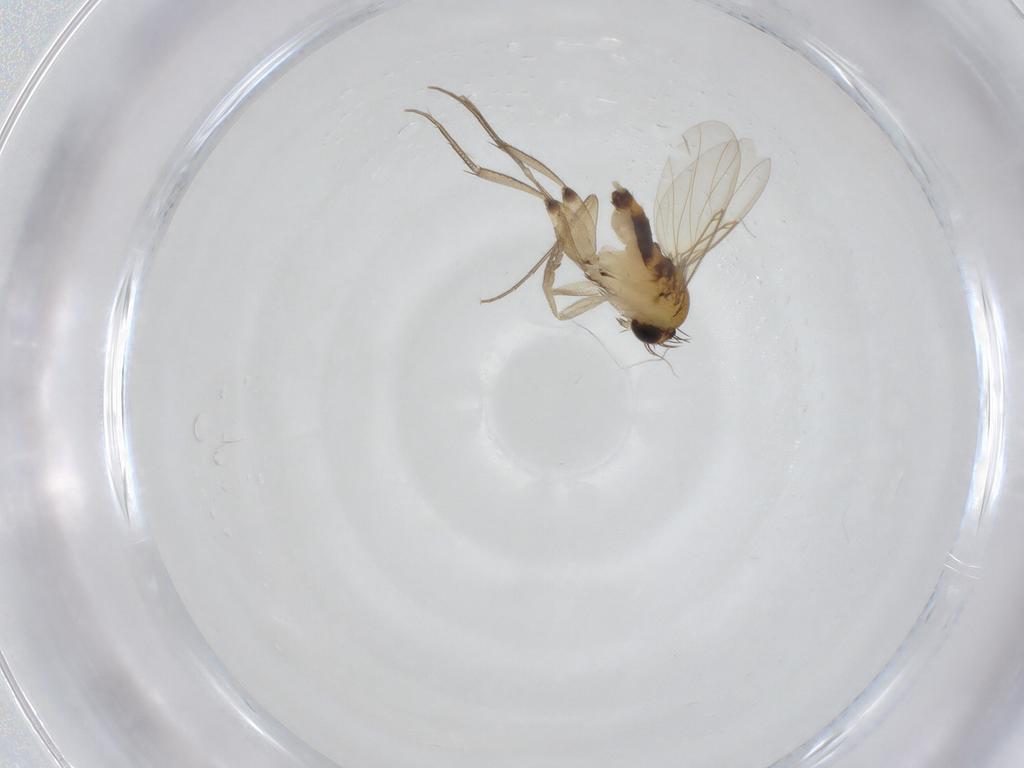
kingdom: Animalia
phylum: Arthropoda
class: Insecta
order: Diptera
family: Phoridae
